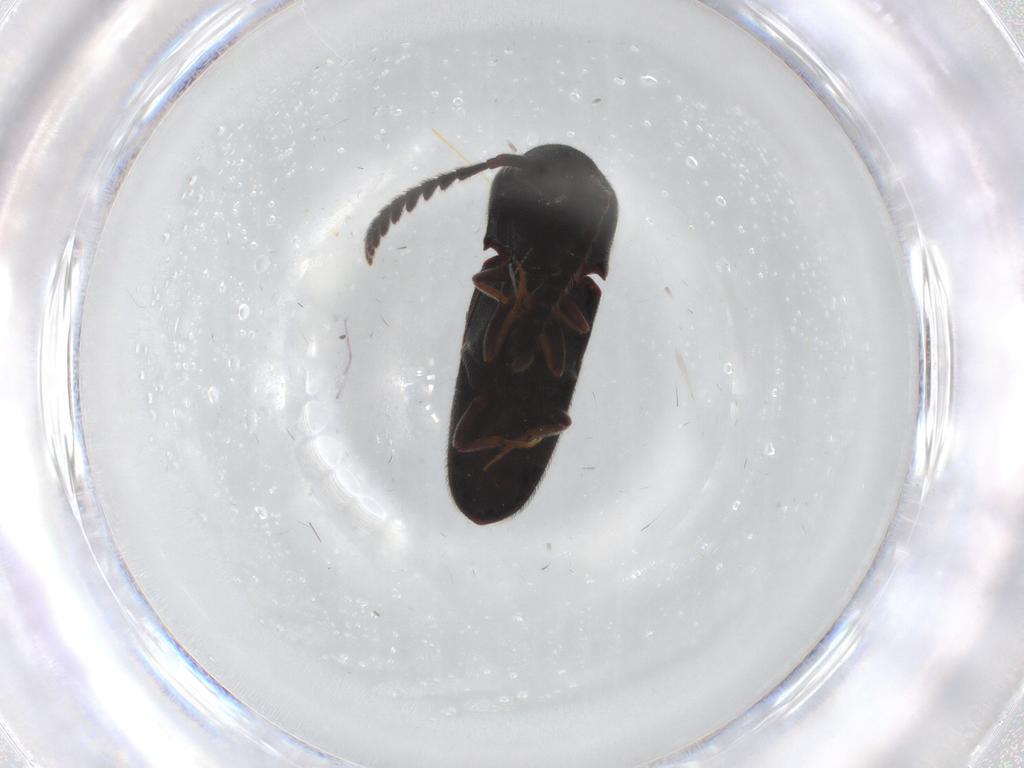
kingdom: Animalia
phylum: Arthropoda
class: Insecta
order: Coleoptera
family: Eucnemidae
